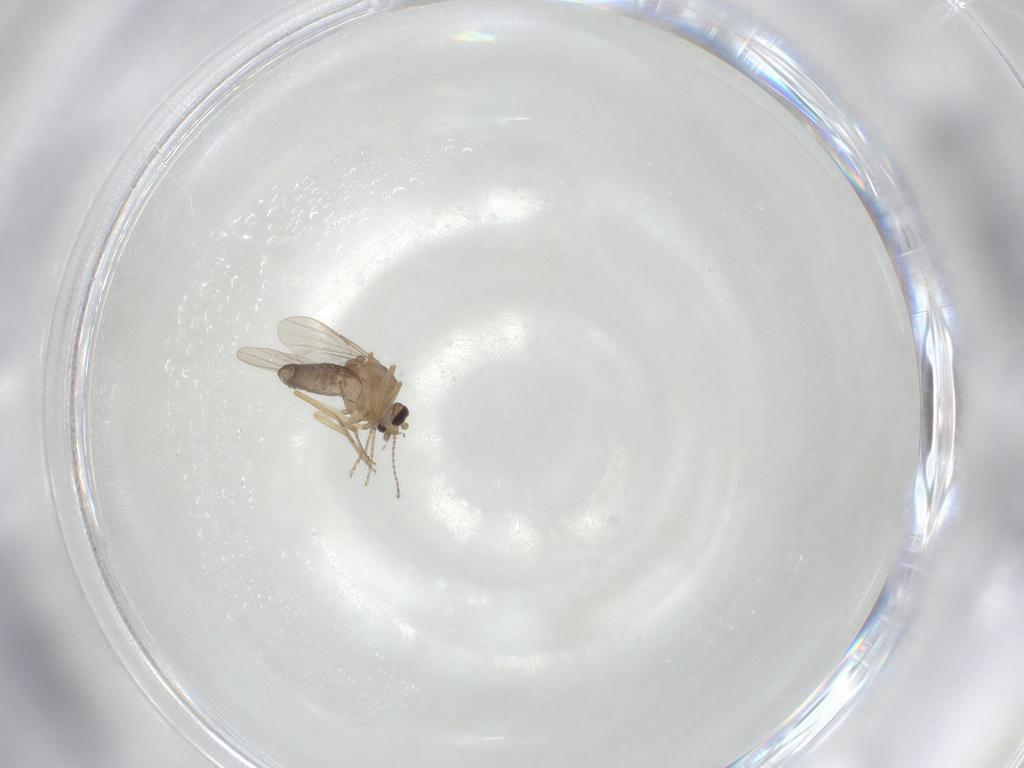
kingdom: Animalia
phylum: Arthropoda
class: Insecta
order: Diptera
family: Ceratopogonidae
